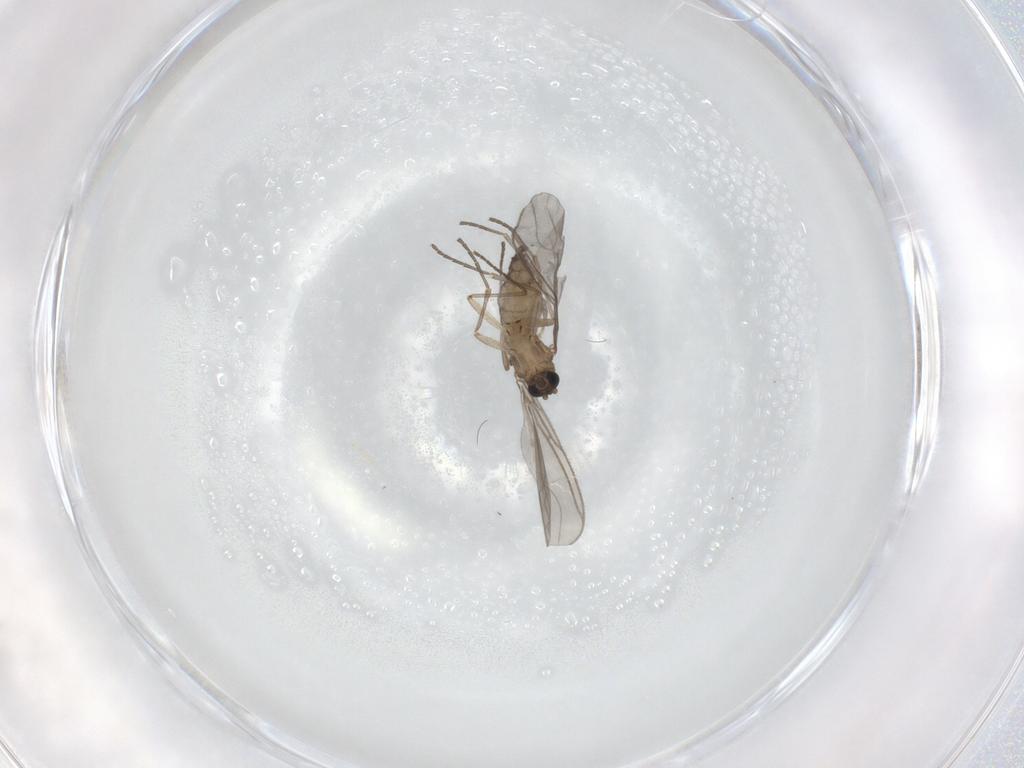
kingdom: Animalia
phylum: Arthropoda
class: Insecta
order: Diptera
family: Sciaridae
